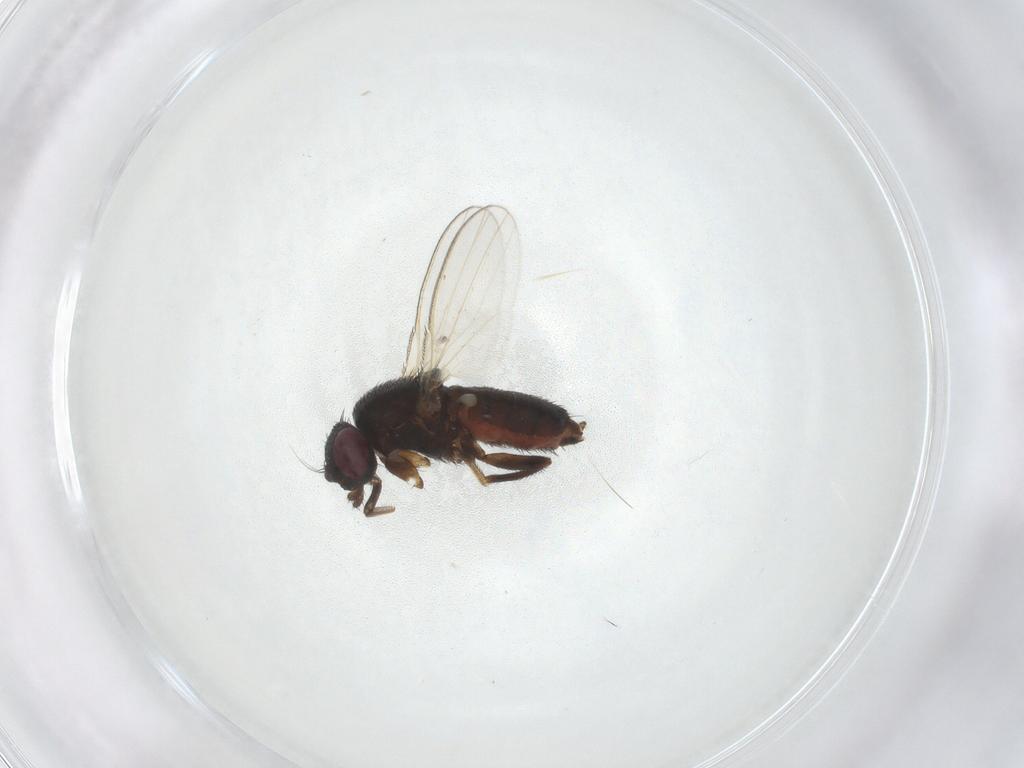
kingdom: Animalia
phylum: Arthropoda
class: Insecta
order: Diptera
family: Milichiidae
